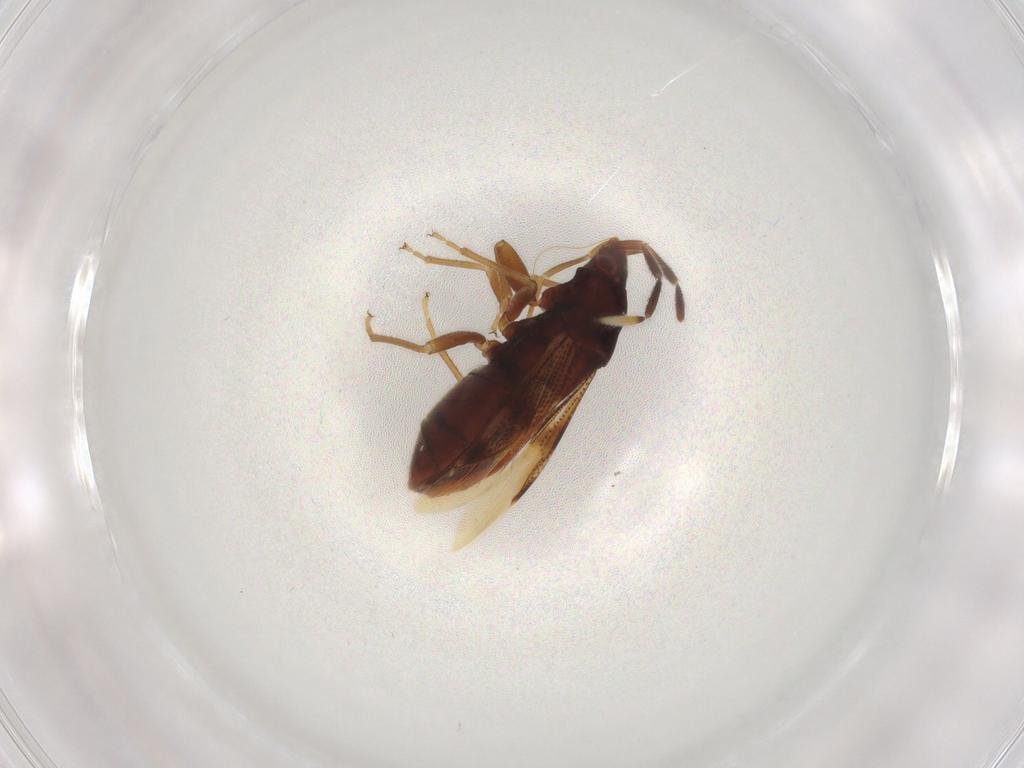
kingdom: Animalia
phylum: Arthropoda
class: Insecta
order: Hemiptera
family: Rhyparochromidae
